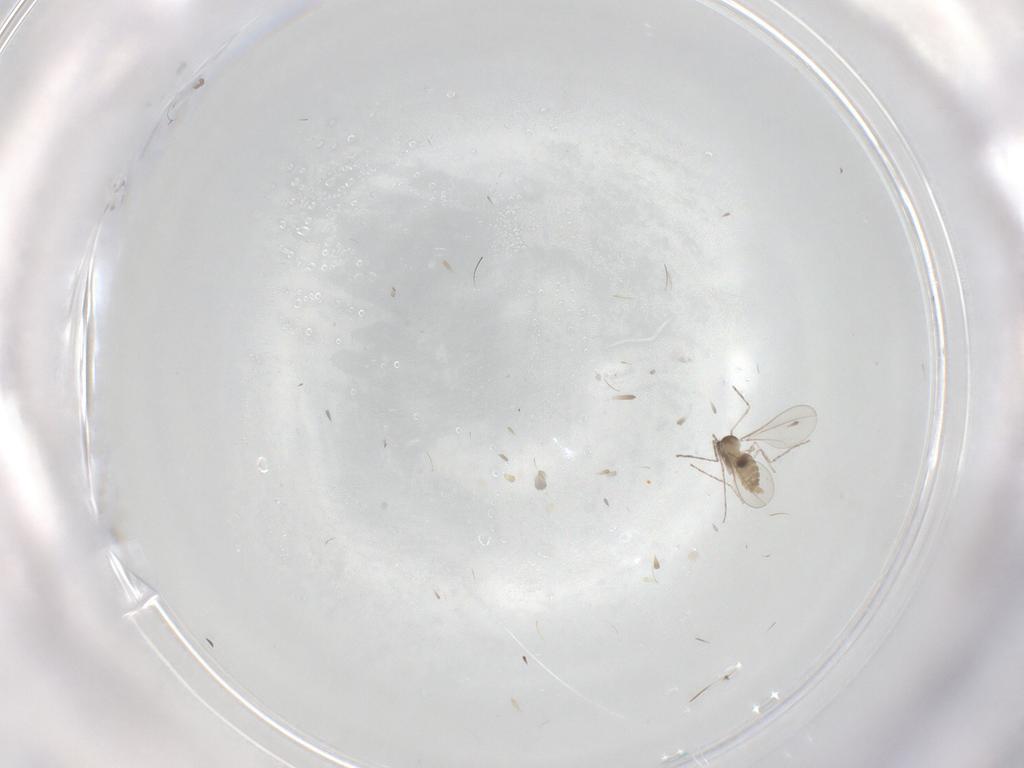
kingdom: Animalia
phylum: Arthropoda
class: Insecta
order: Diptera
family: Cecidomyiidae
